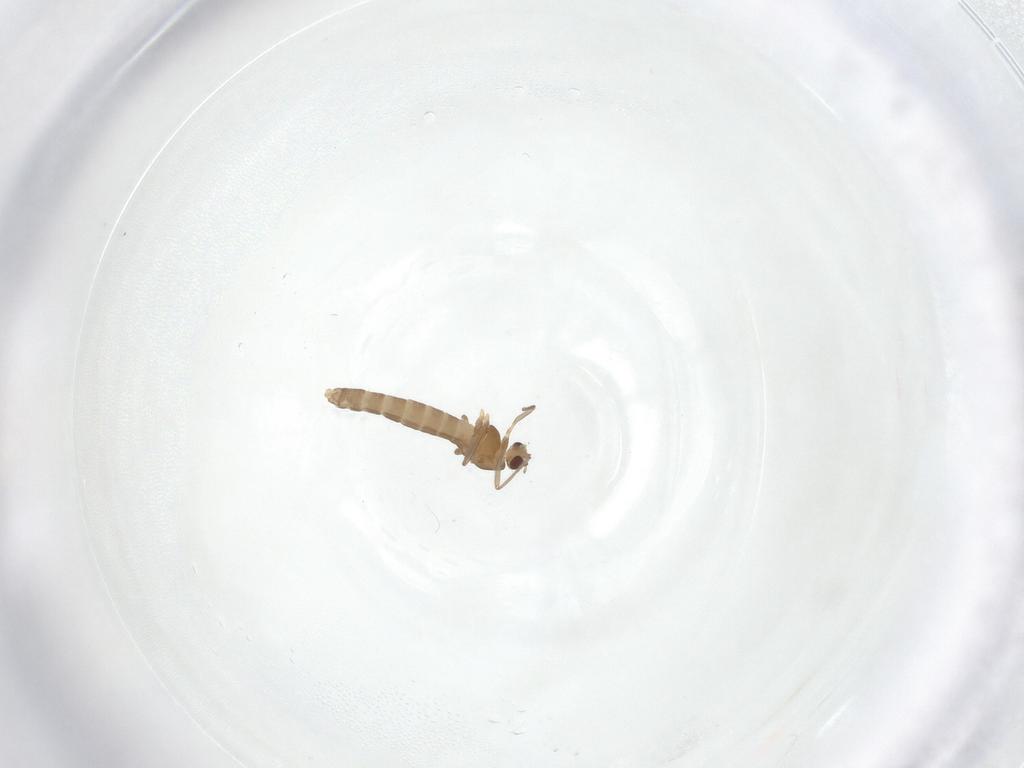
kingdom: Animalia
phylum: Arthropoda
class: Insecta
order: Diptera
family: Chironomidae
